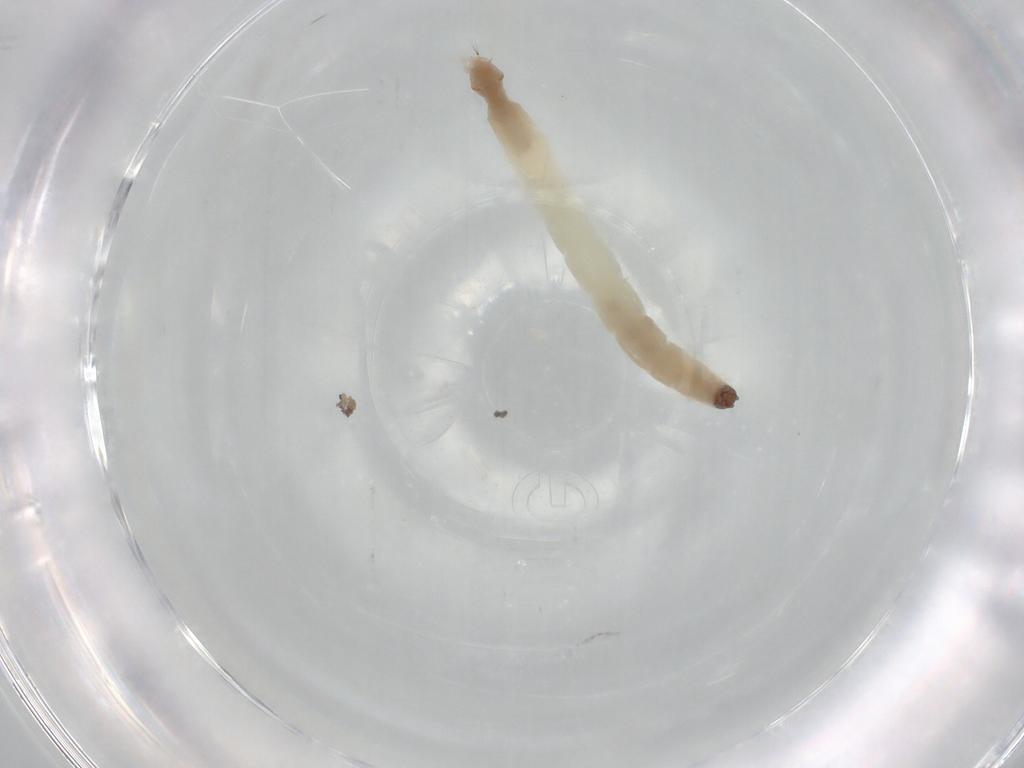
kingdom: Animalia
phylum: Arthropoda
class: Insecta
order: Diptera
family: Chironomidae
